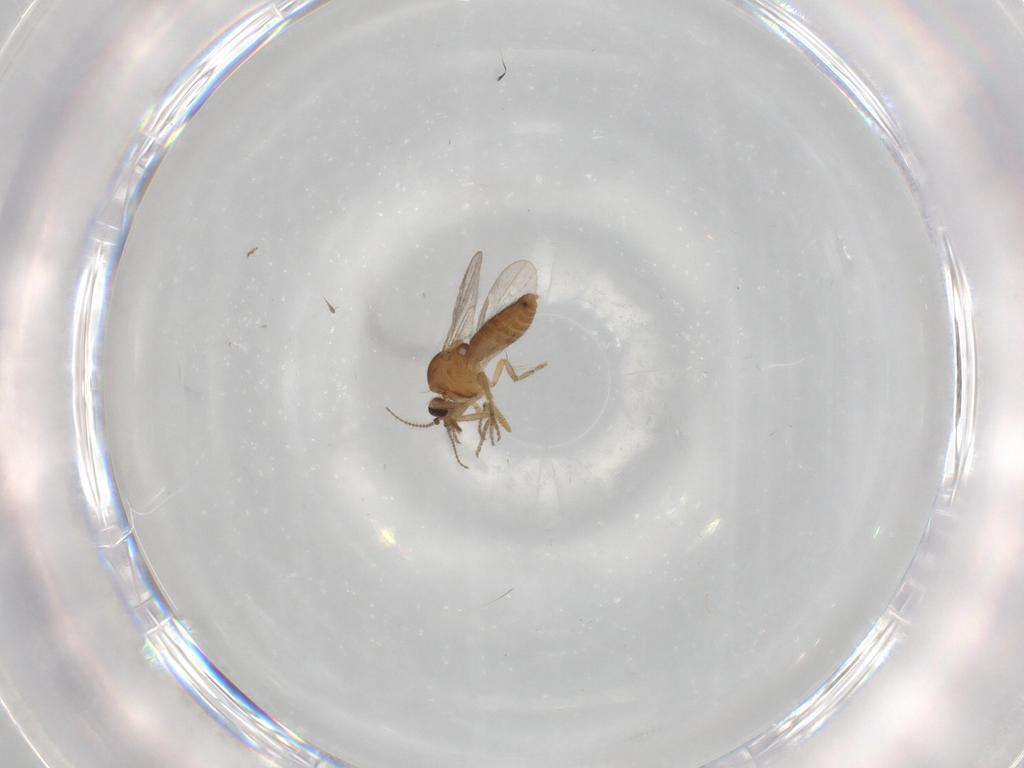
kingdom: Animalia
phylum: Arthropoda
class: Insecta
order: Diptera
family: Ceratopogonidae
